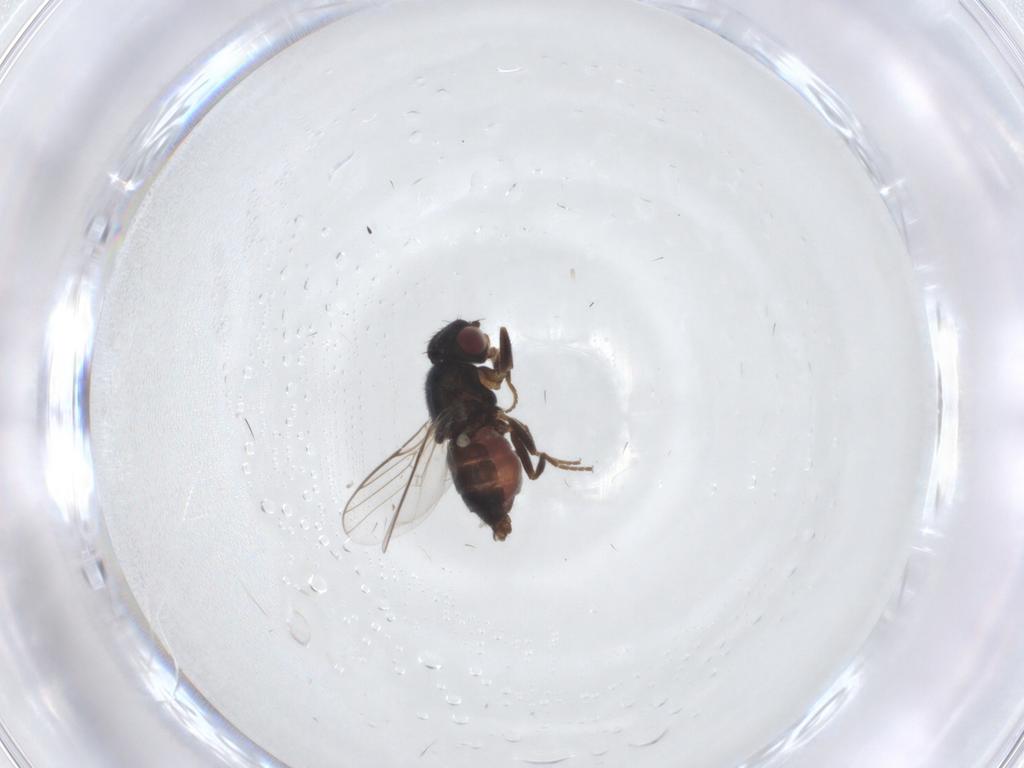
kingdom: Animalia
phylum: Arthropoda
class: Insecta
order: Diptera
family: Chloropidae
